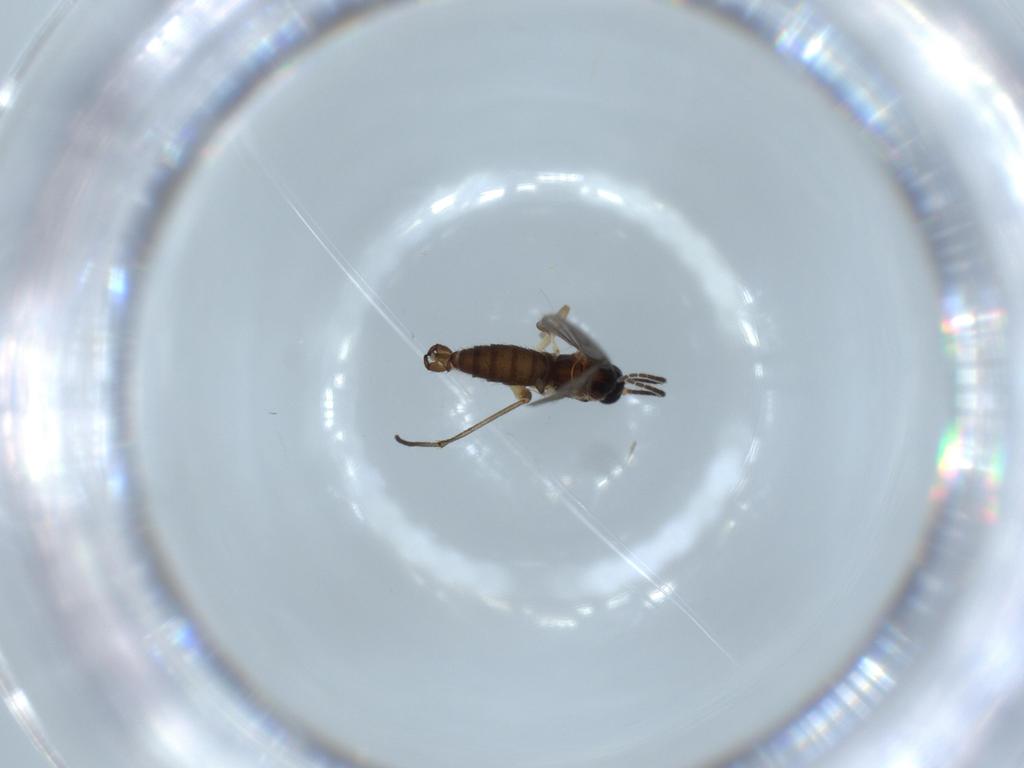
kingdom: Animalia
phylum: Arthropoda
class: Insecta
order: Diptera
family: Sciaridae
